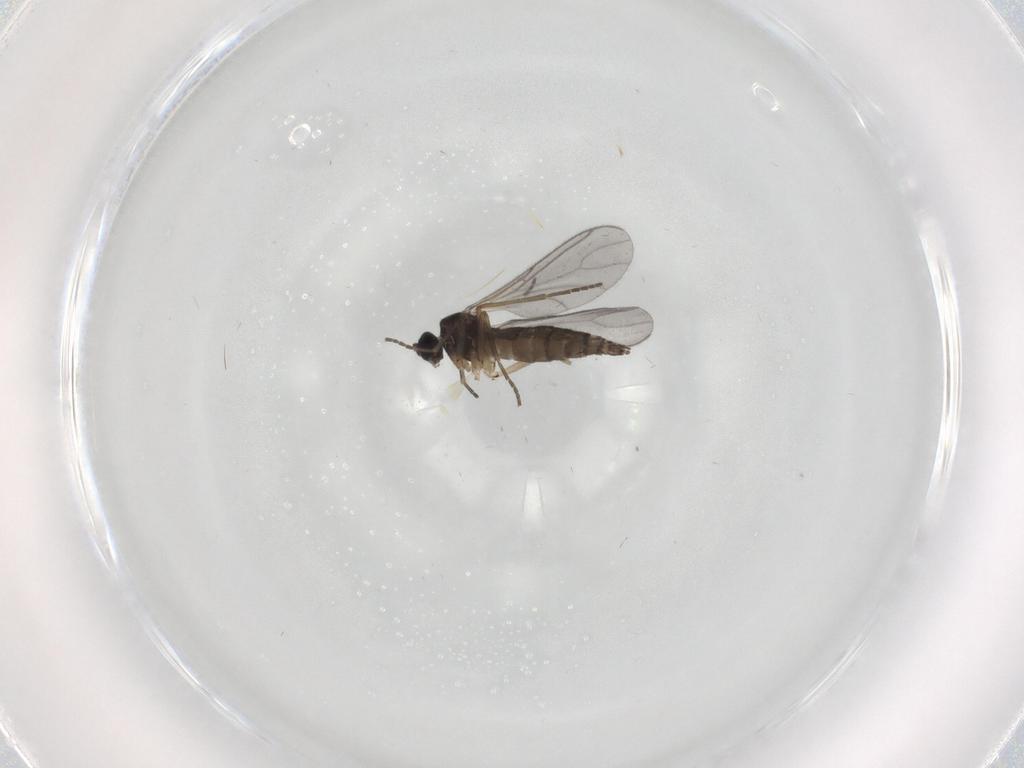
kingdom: Animalia
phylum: Arthropoda
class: Insecta
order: Diptera
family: Sciaridae
